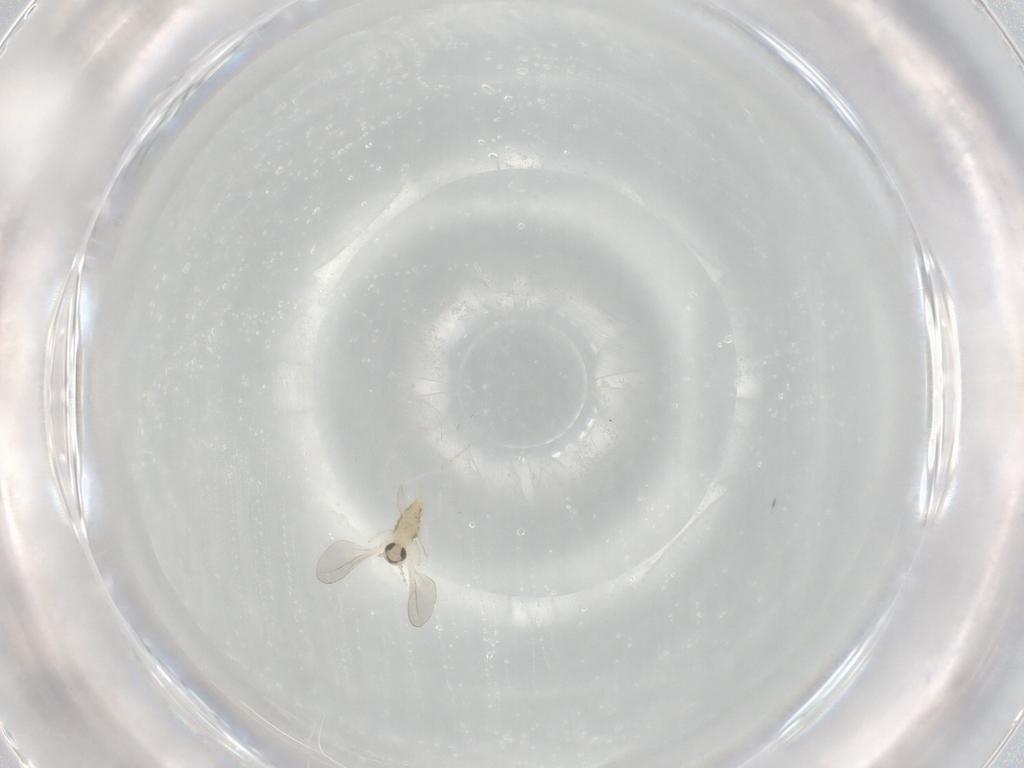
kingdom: Animalia
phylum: Arthropoda
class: Insecta
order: Diptera
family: Cecidomyiidae
